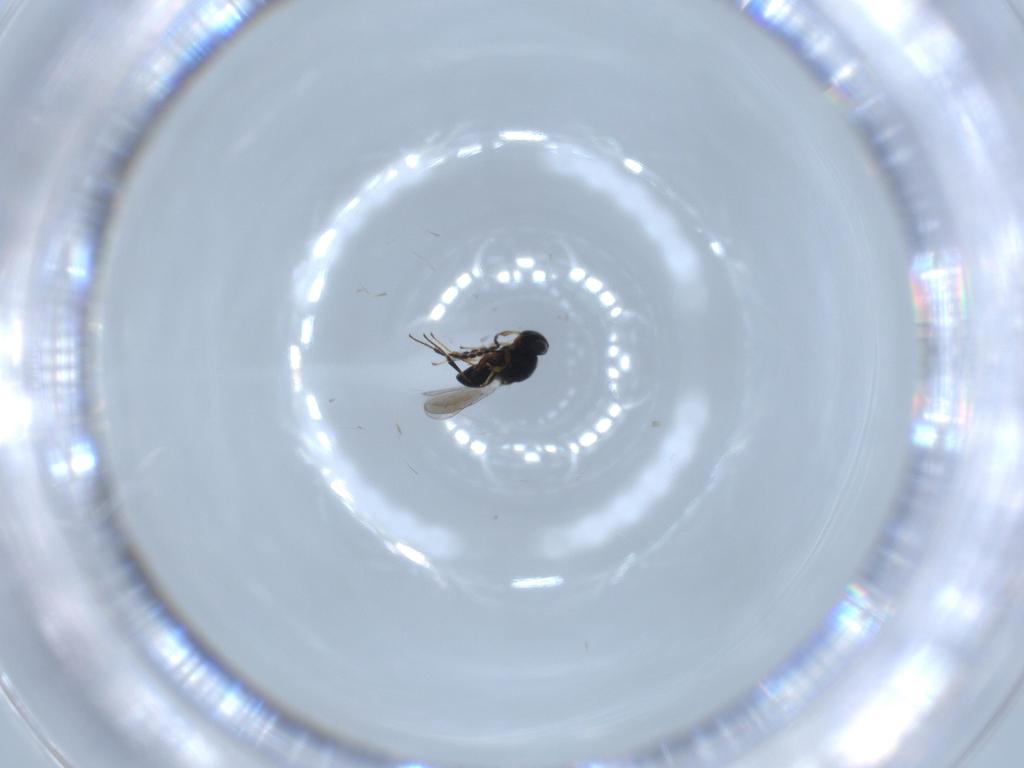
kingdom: Animalia
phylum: Arthropoda
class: Insecta
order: Hymenoptera
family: Platygastridae
